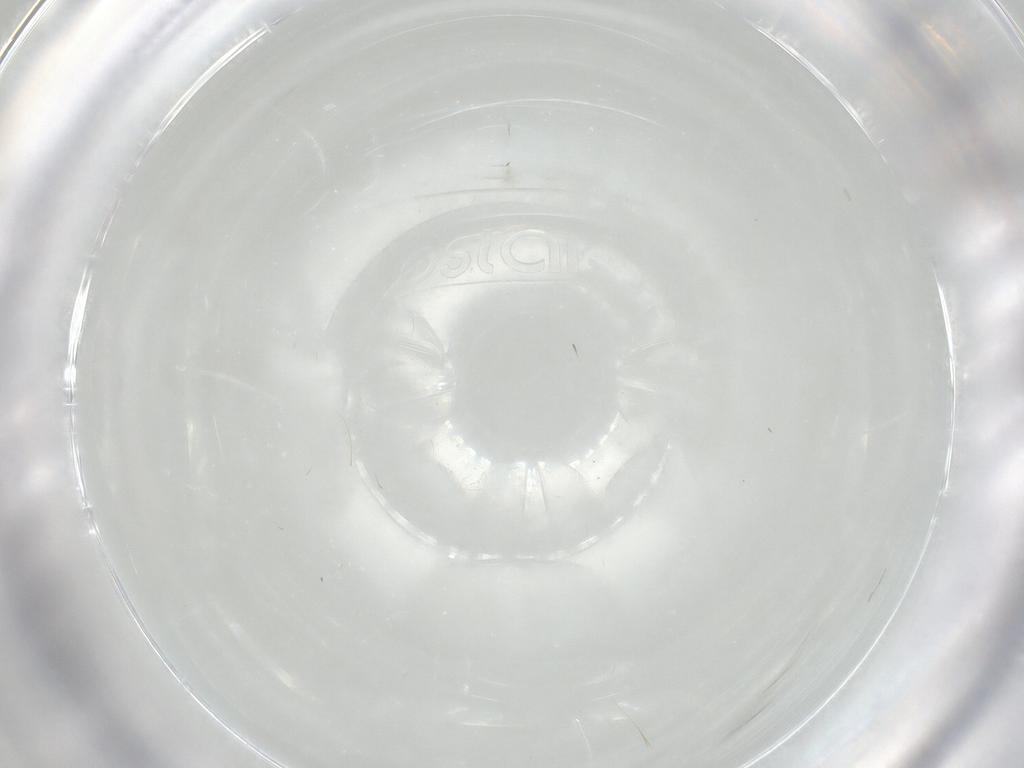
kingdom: Animalia
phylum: Arthropoda
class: Insecta
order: Diptera
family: Sciaridae
